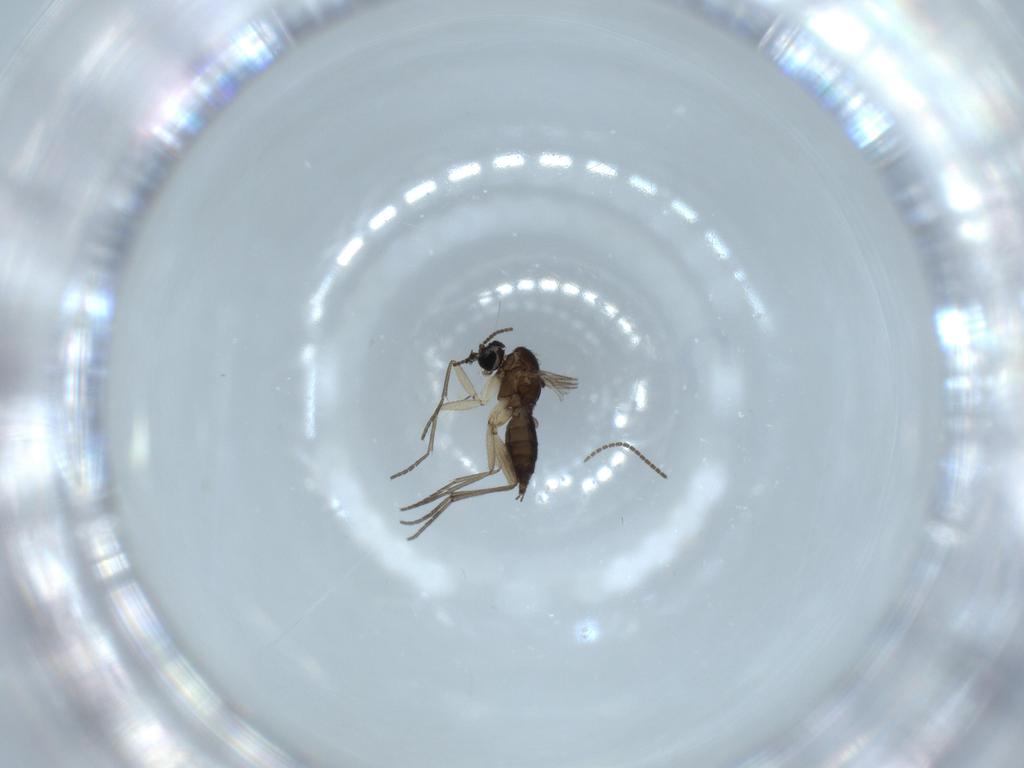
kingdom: Animalia
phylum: Arthropoda
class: Insecta
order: Diptera
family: Sciaridae
